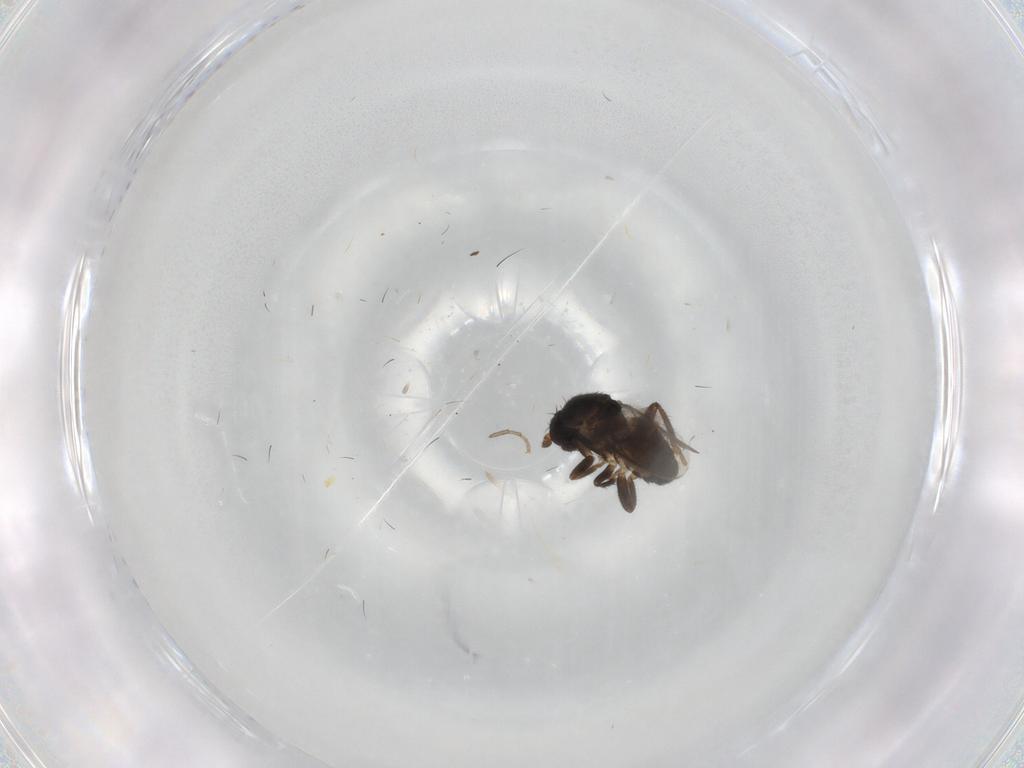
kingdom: Animalia
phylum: Arthropoda
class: Insecta
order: Diptera
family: Sphaeroceridae
